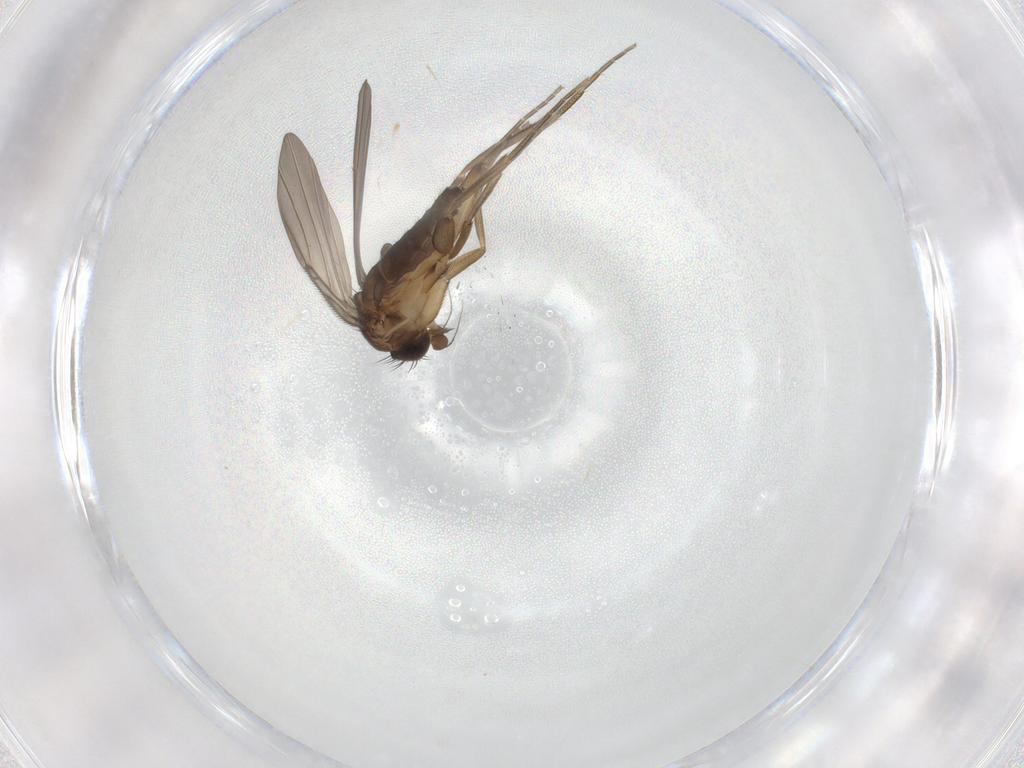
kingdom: Animalia
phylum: Arthropoda
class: Insecta
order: Diptera
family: Phoridae
